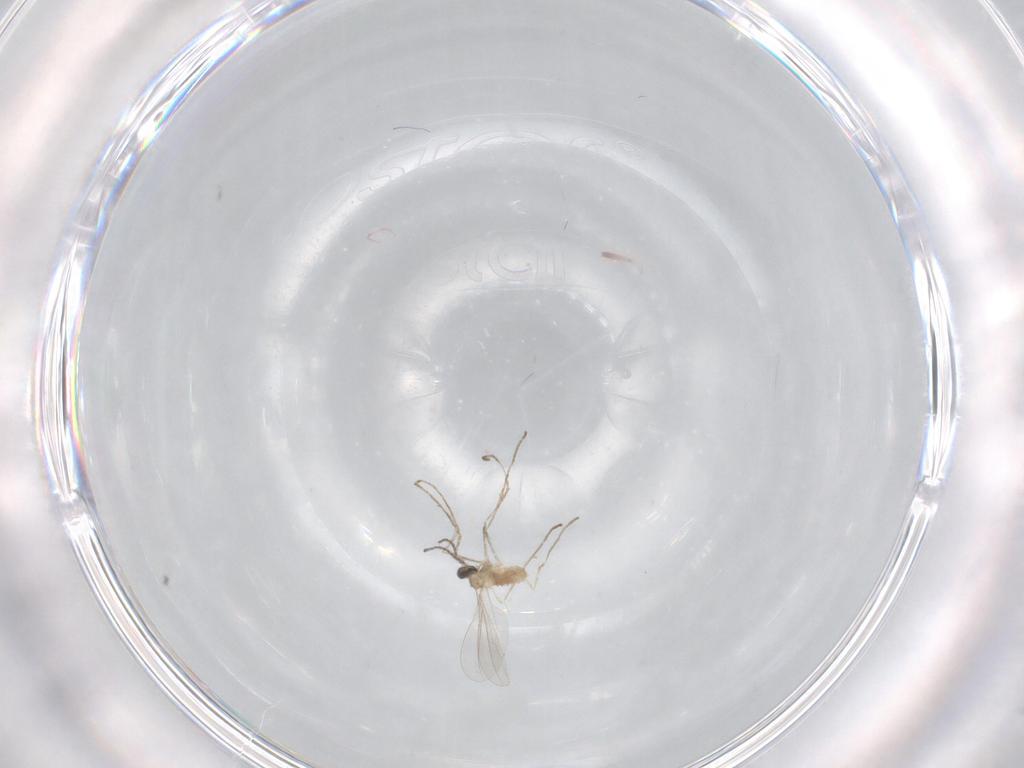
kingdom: Animalia
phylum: Arthropoda
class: Insecta
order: Diptera
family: Cecidomyiidae
